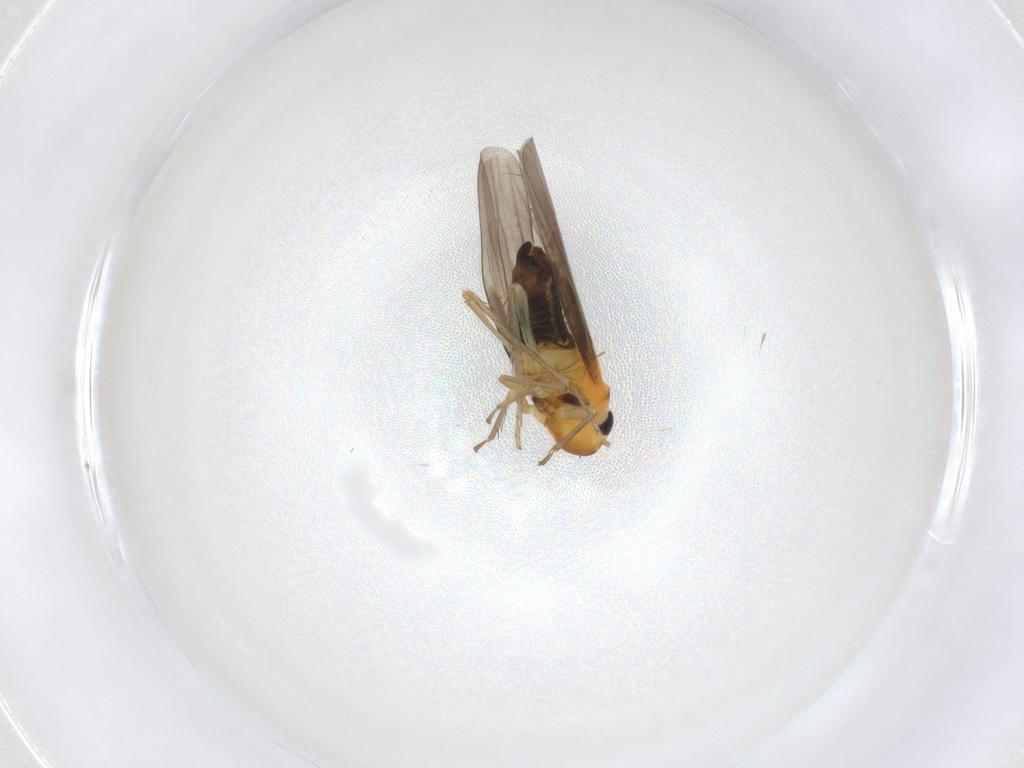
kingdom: Animalia
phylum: Arthropoda
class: Insecta
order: Hemiptera
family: Cicadellidae
